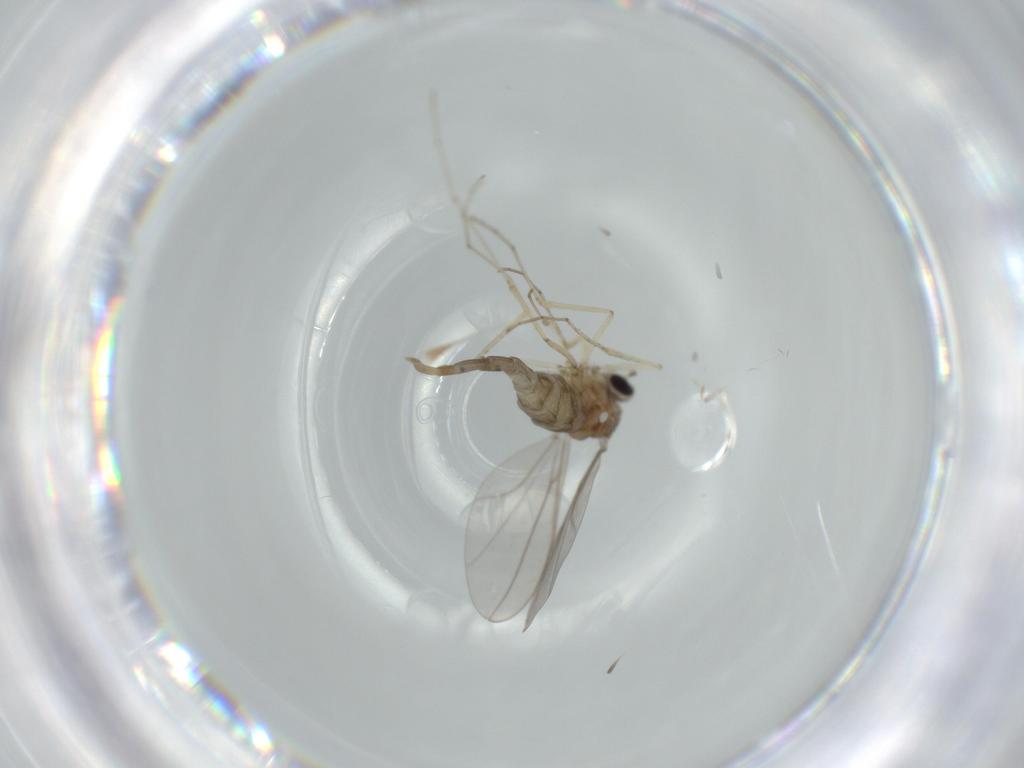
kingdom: Animalia
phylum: Arthropoda
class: Insecta
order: Diptera
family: Cecidomyiidae
